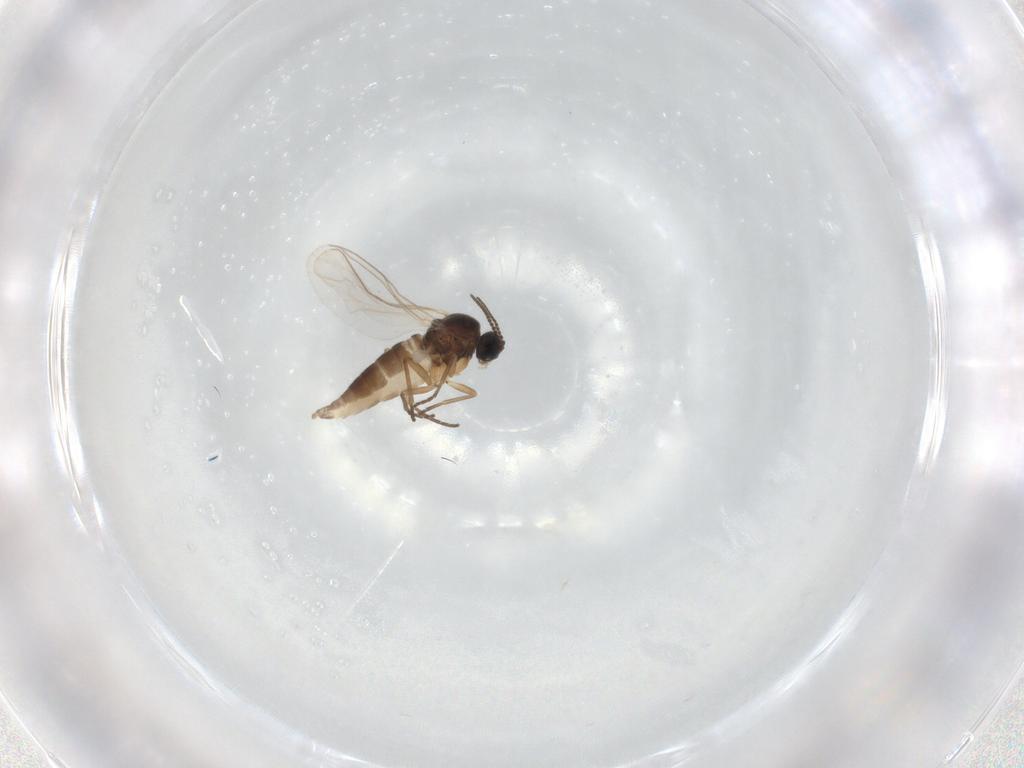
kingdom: Animalia
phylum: Arthropoda
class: Insecta
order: Diptera
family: Sciaridae
